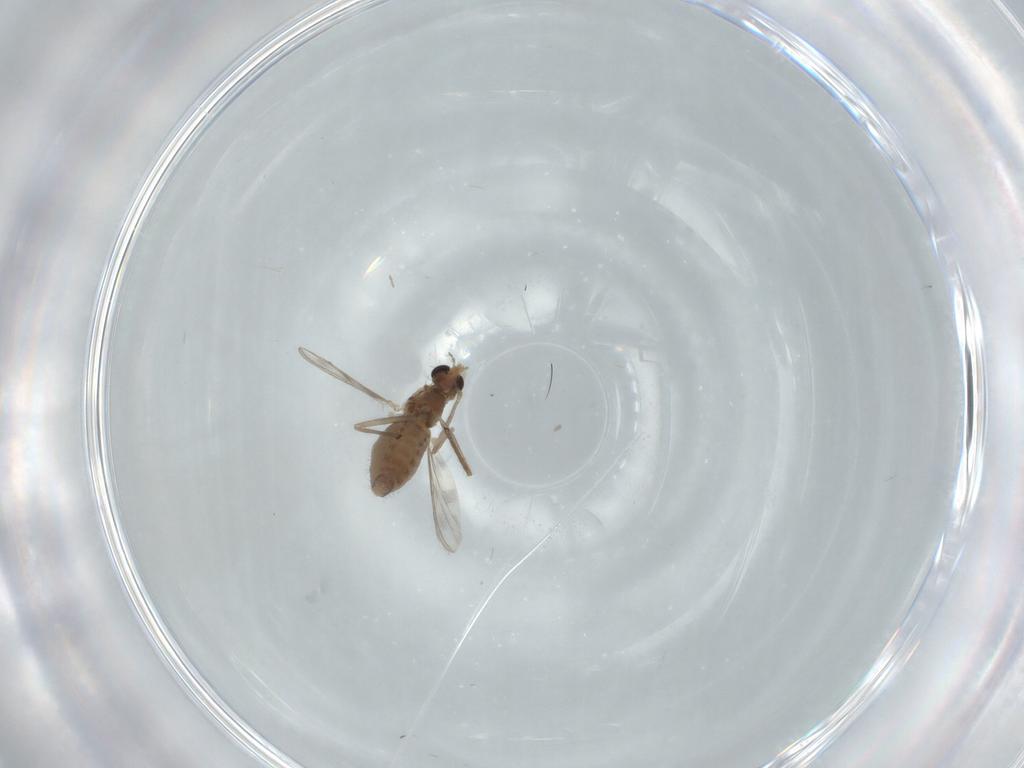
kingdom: Animalia
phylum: Arthropoda
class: Insecta
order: Diptera
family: Chironomidae
